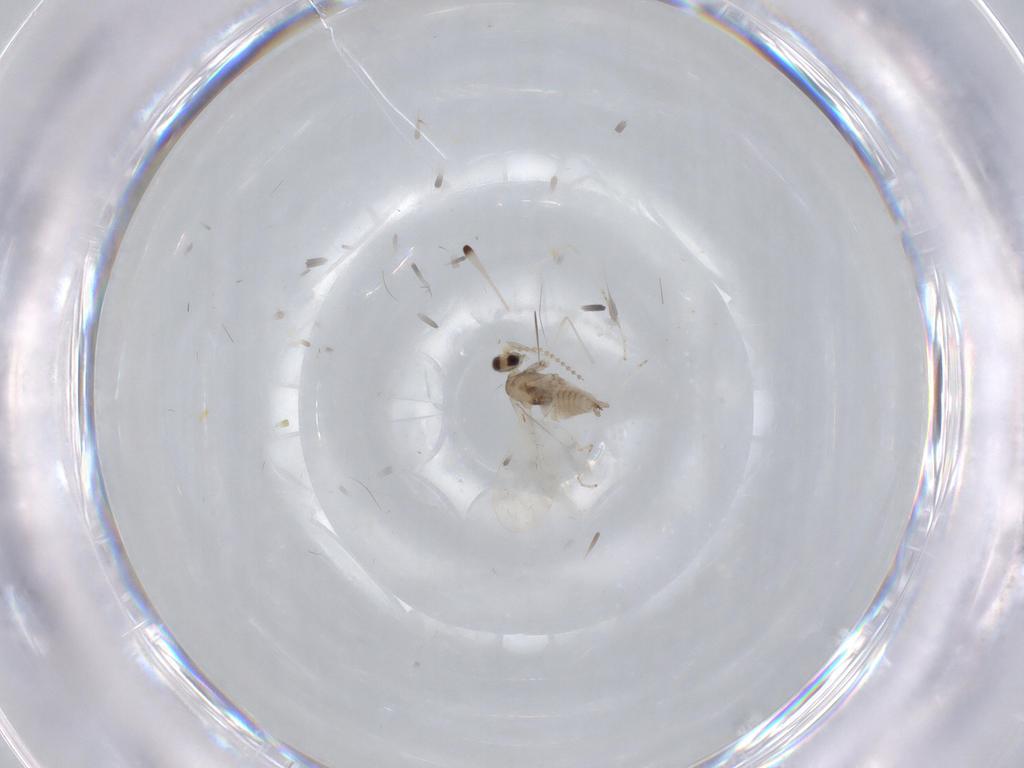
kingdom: Animalia
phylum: Arthropoda
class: Insecta
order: Diptera
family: Cecidomyiidae
